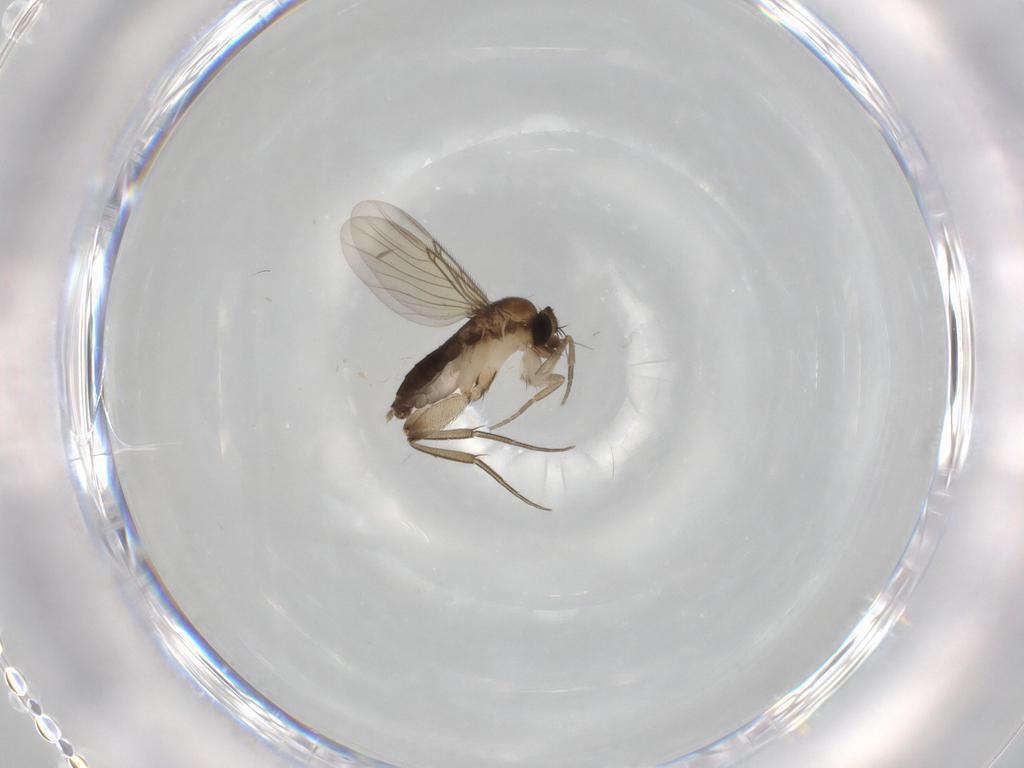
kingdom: Animalia
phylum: Arthropoda
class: Insecta
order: Diptera
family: Phoridae
